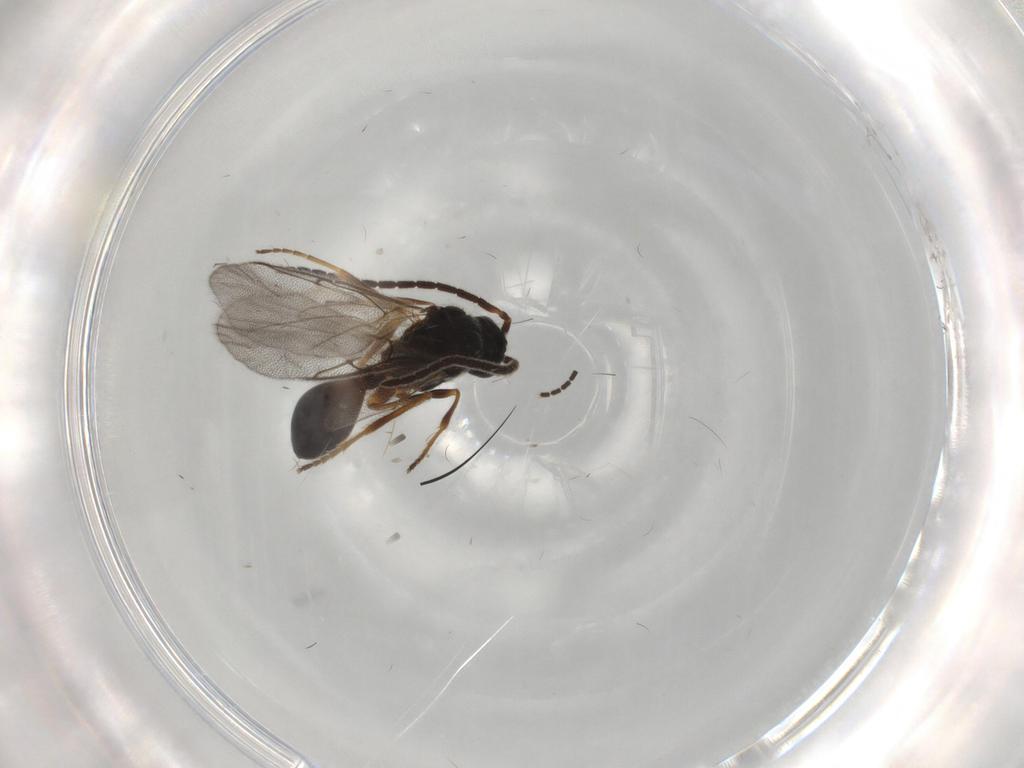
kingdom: Animalia
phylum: Arthropoda
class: Insecta
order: Hymenoptera
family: Diapriidae
